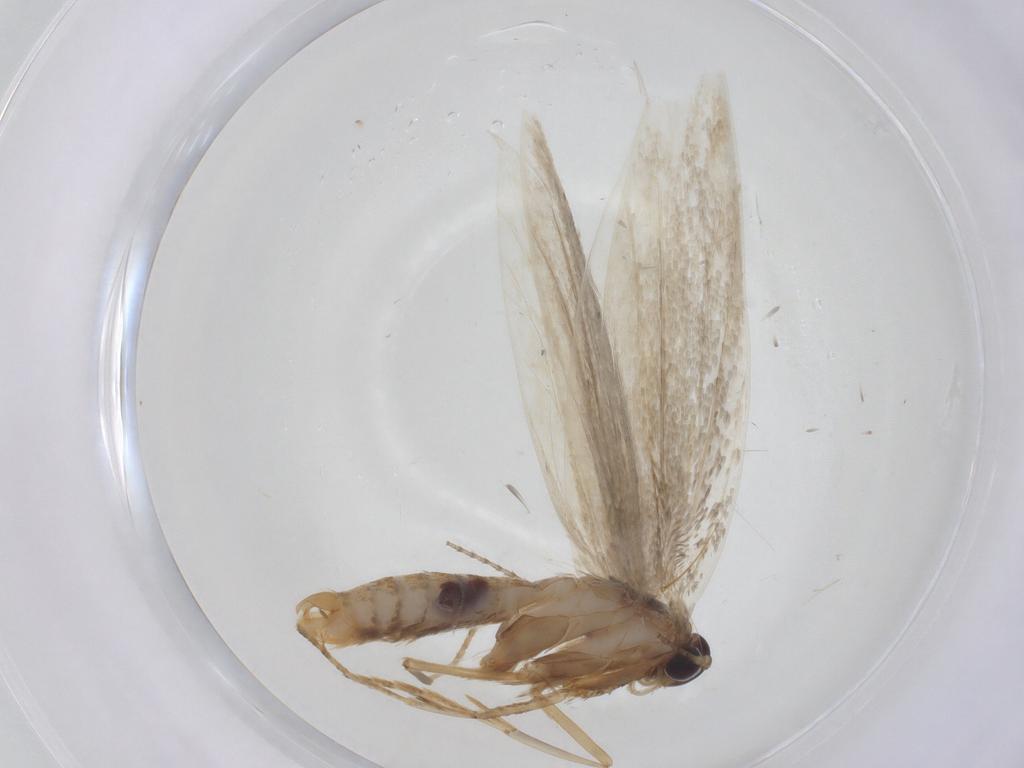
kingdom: Animalia
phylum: Arthropoda
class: Insecta
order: Lepidoptera
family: Erebidae
